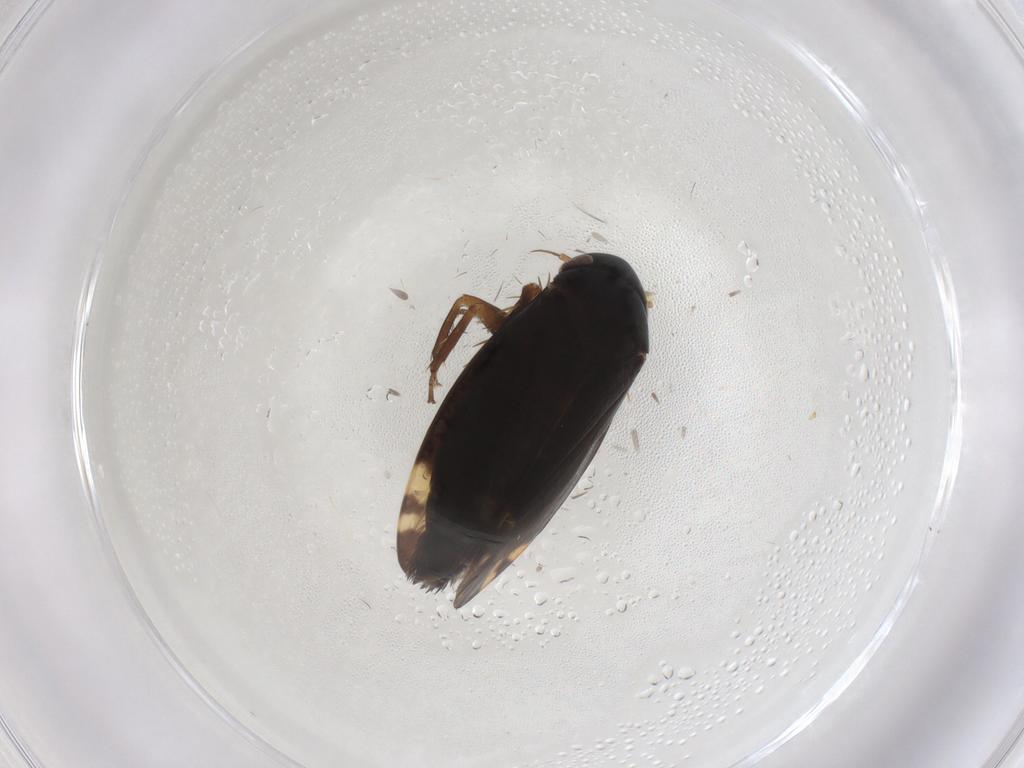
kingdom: Animalia
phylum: Arthropoda
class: Insecta
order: Hemiptera
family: Cicadellidae
